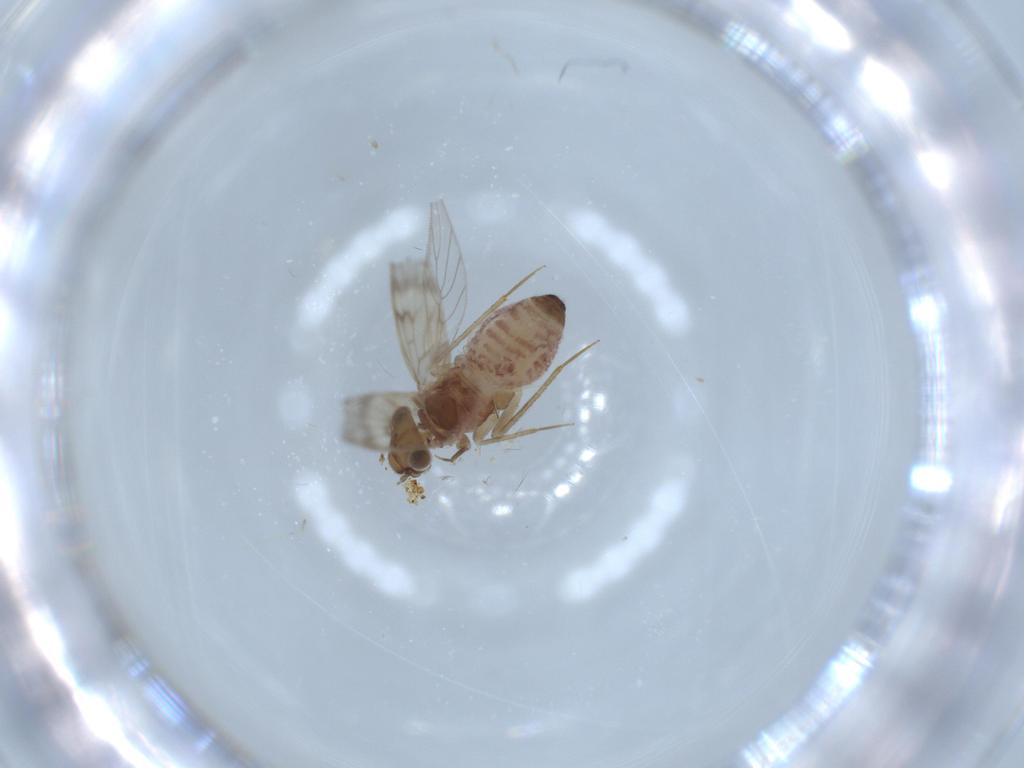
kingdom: Animalia
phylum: Arthropoda
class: Insecta
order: Psocodea
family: Lepidopsocidae
